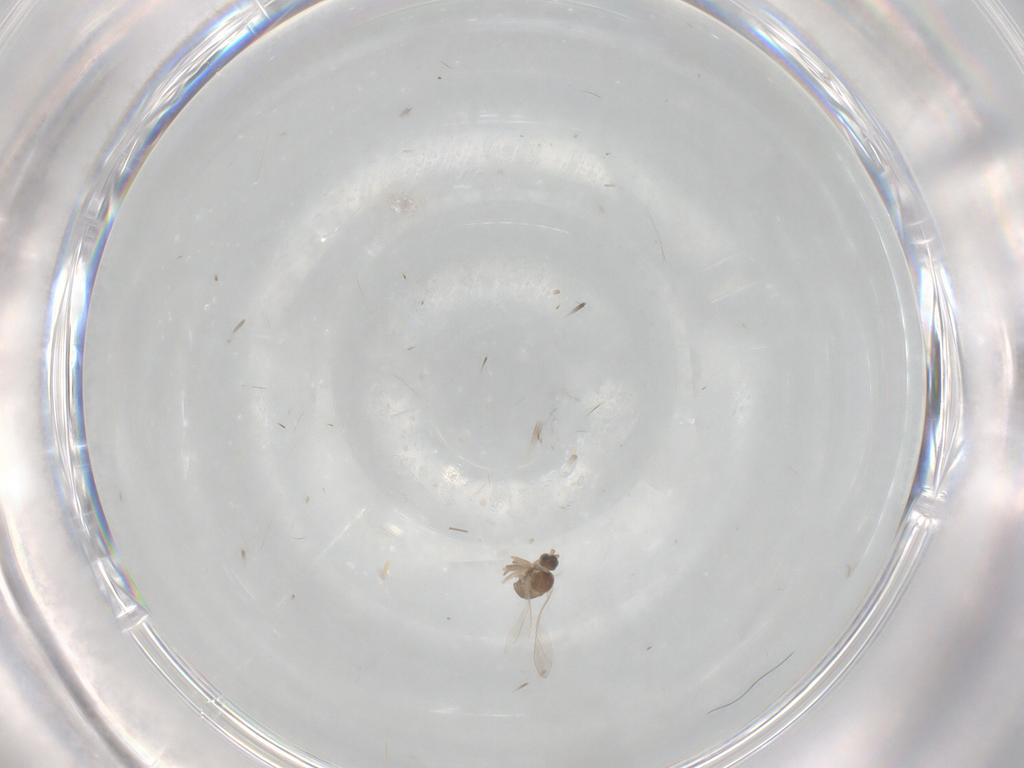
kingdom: Animalia
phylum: Arthropoda
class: Insecta
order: Diptera
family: Cecidomyiidae
